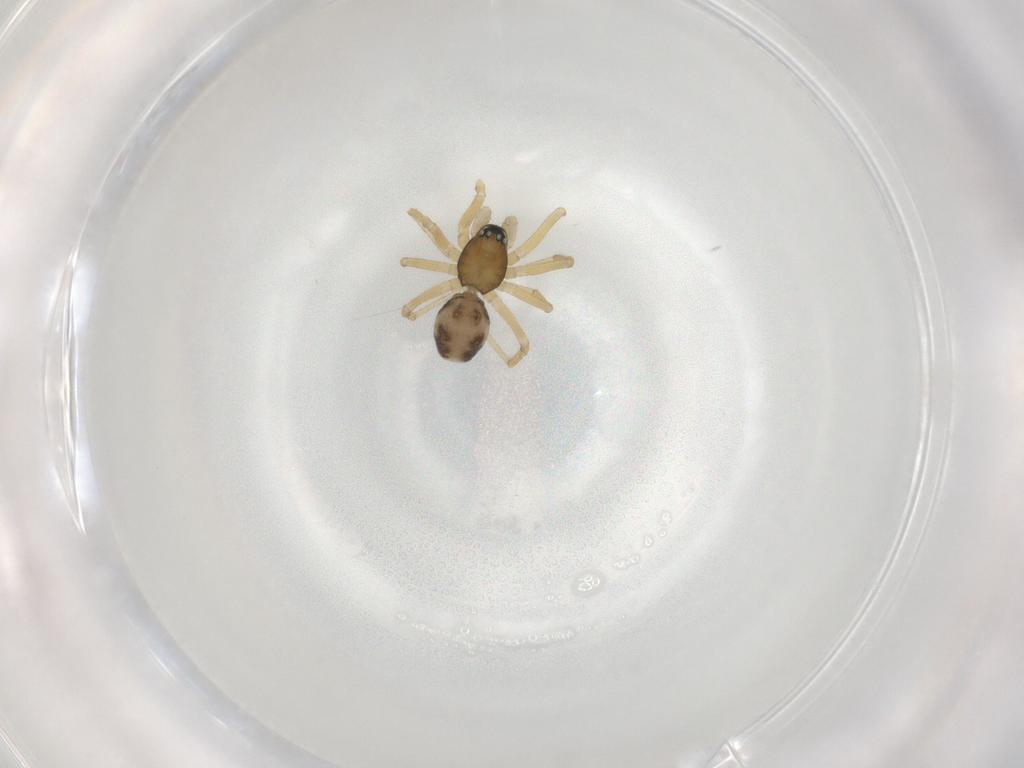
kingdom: Animalia
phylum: Arthropoda
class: Arachnida
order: Araneae
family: Linyphiidae
